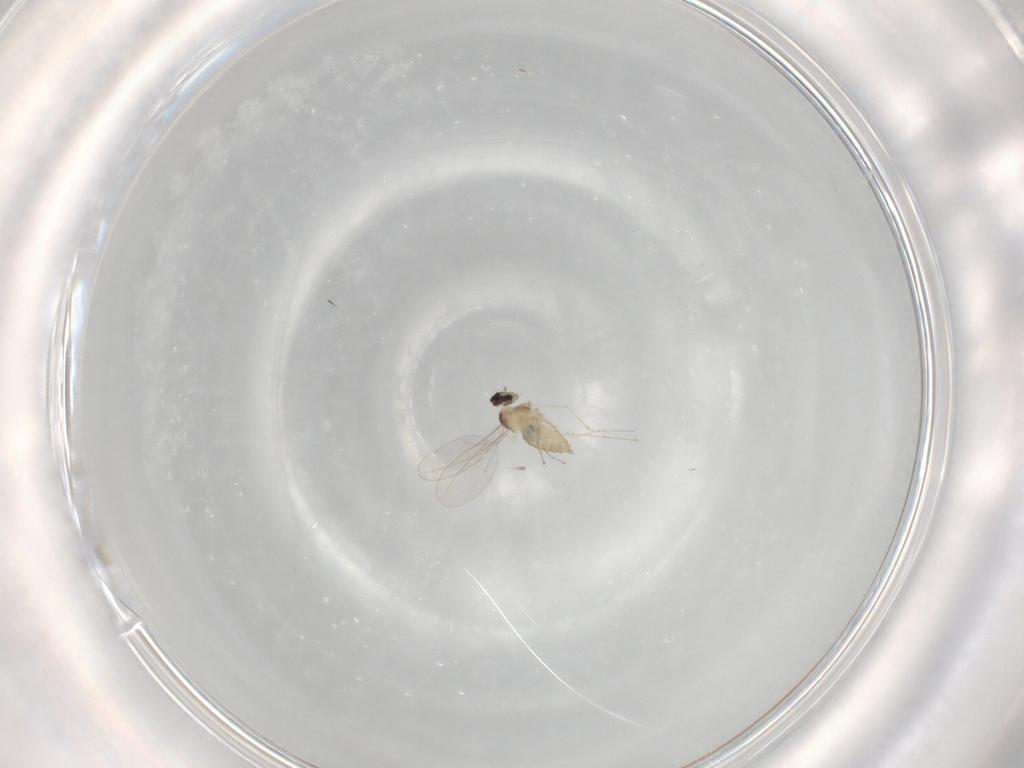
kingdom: Animalia
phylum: Arthropoda
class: Insecta
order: Diptera
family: Cecidomyiidae
